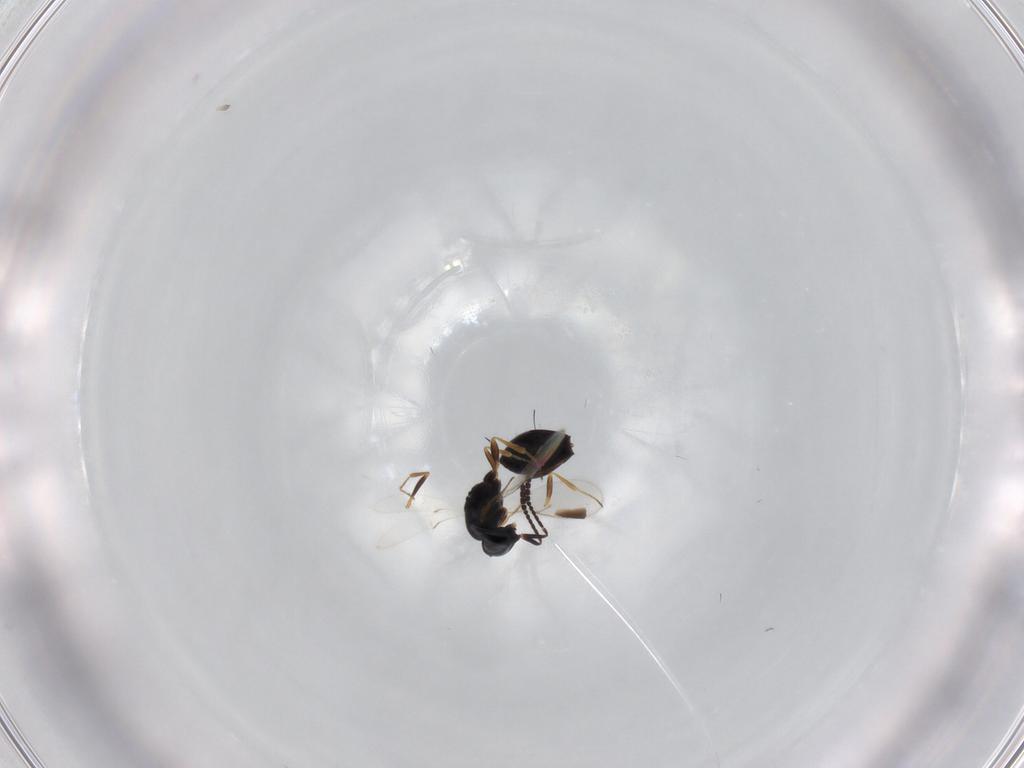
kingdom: Animalia
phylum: Arthropoda
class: Insecta
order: Hymenoptera
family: Scelionidae
